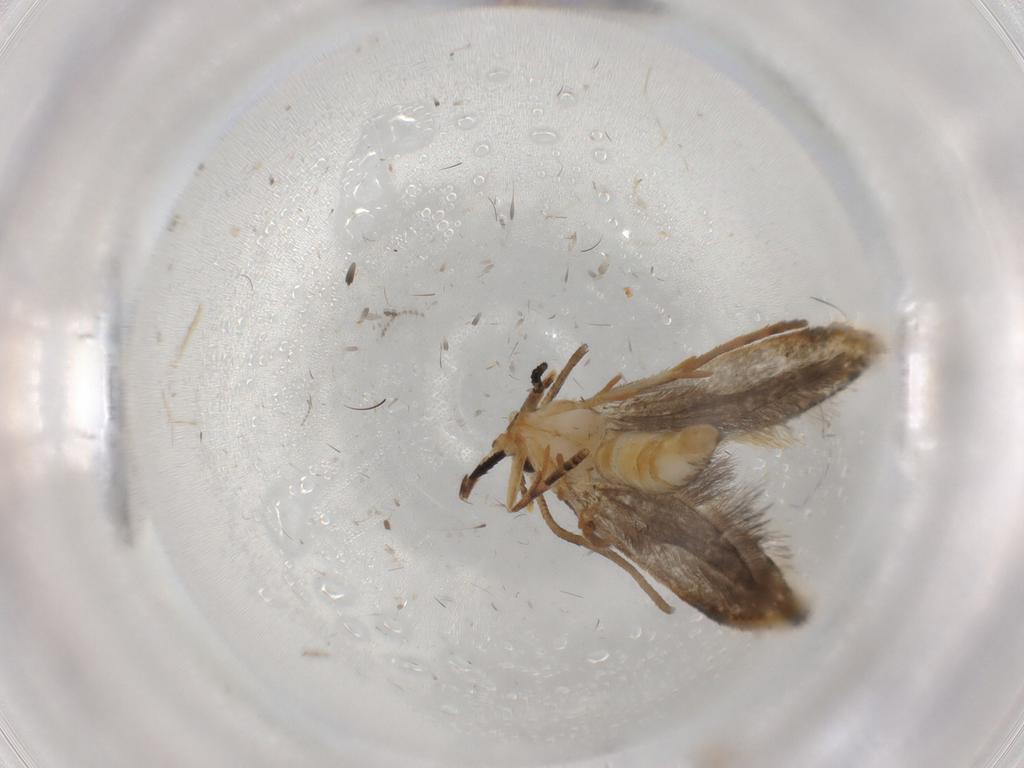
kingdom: Animalia
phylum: Arthropoda
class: Insecta
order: Lepidoptera
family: Tineidae
